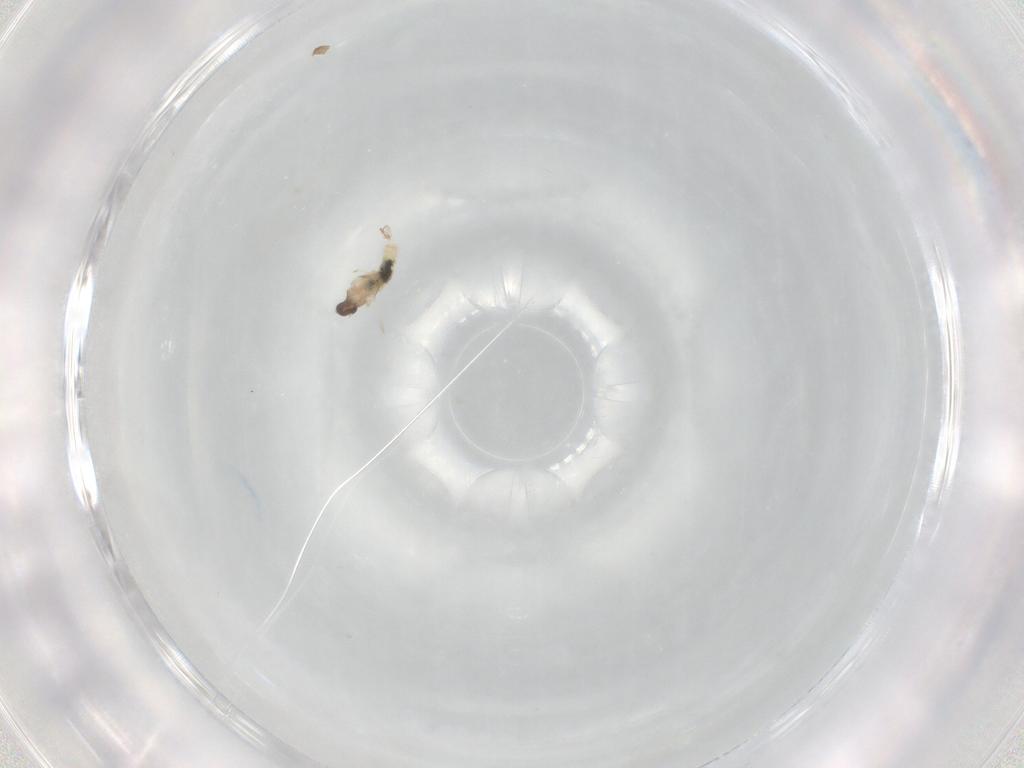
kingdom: Animalia
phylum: Arthropoda
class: Insecta
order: Diptera
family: Cecidomyiidae
